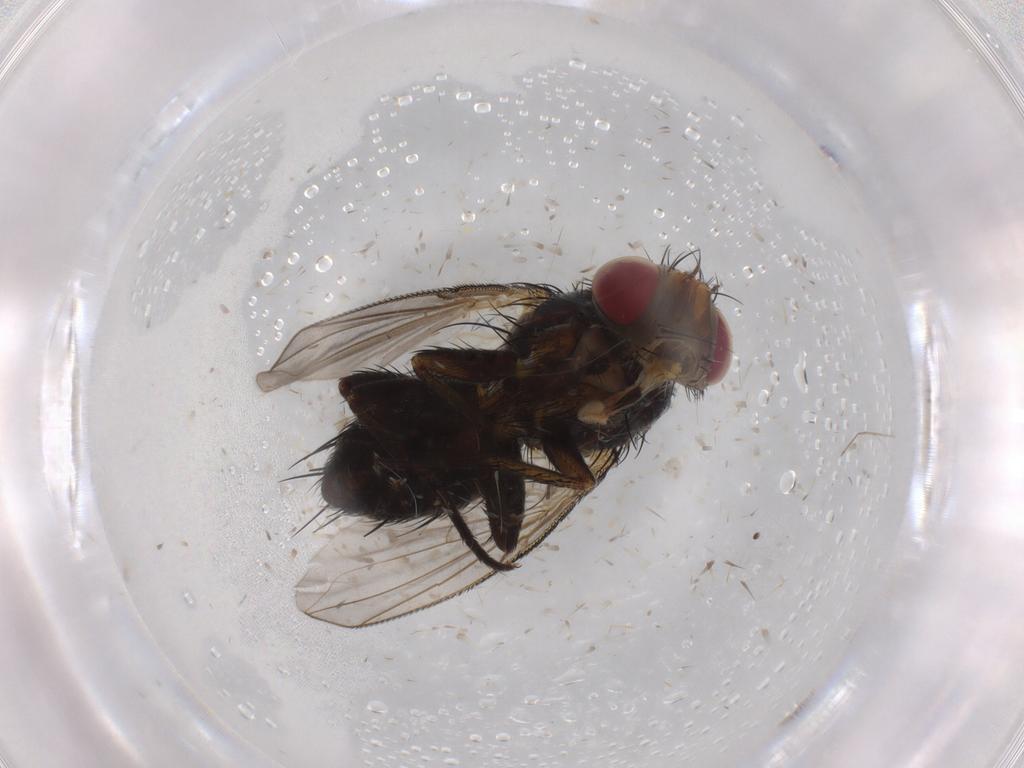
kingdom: Animalia
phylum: Arthropoda
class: Insecta
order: Diptera
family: Sciaridae
